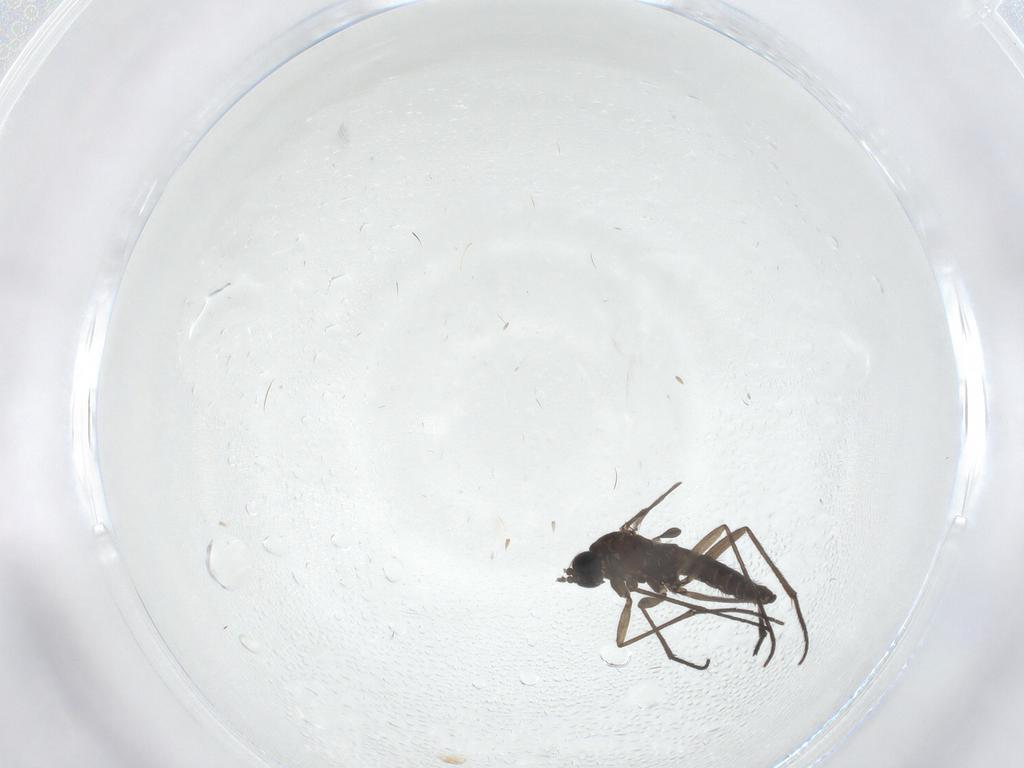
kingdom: Animalia
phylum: Arthropoda
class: Insecta
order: Diptera
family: Sciaridae
